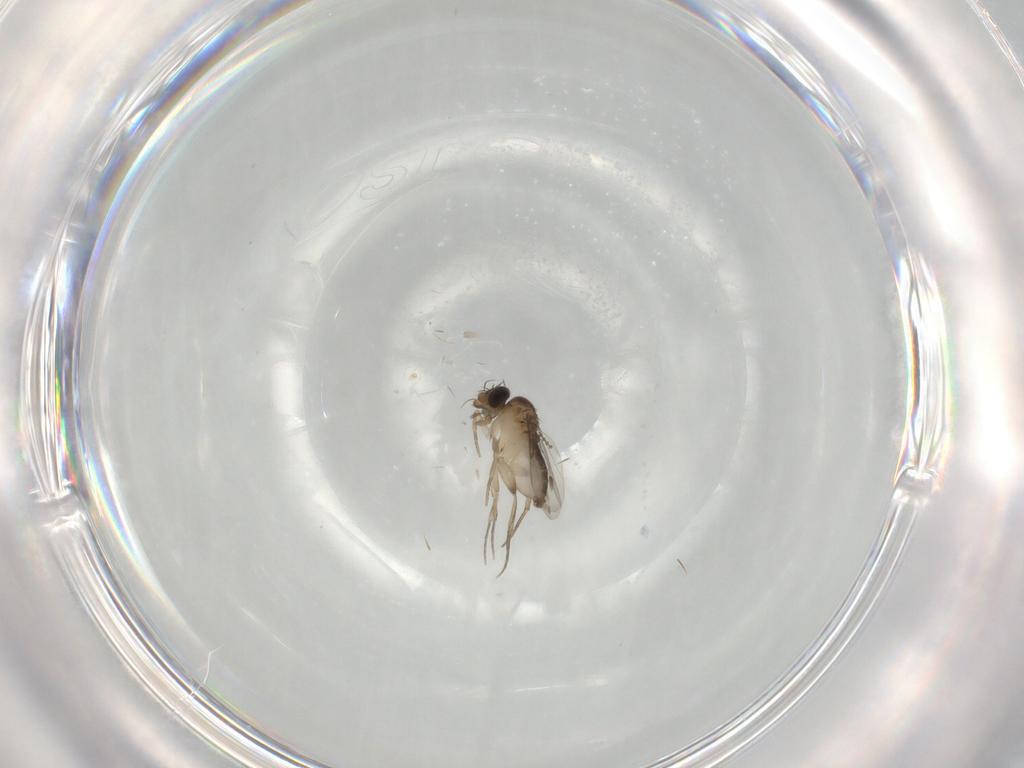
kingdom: Animalia
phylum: Arthropoda
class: Insecta
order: Diptera
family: Phoridae
